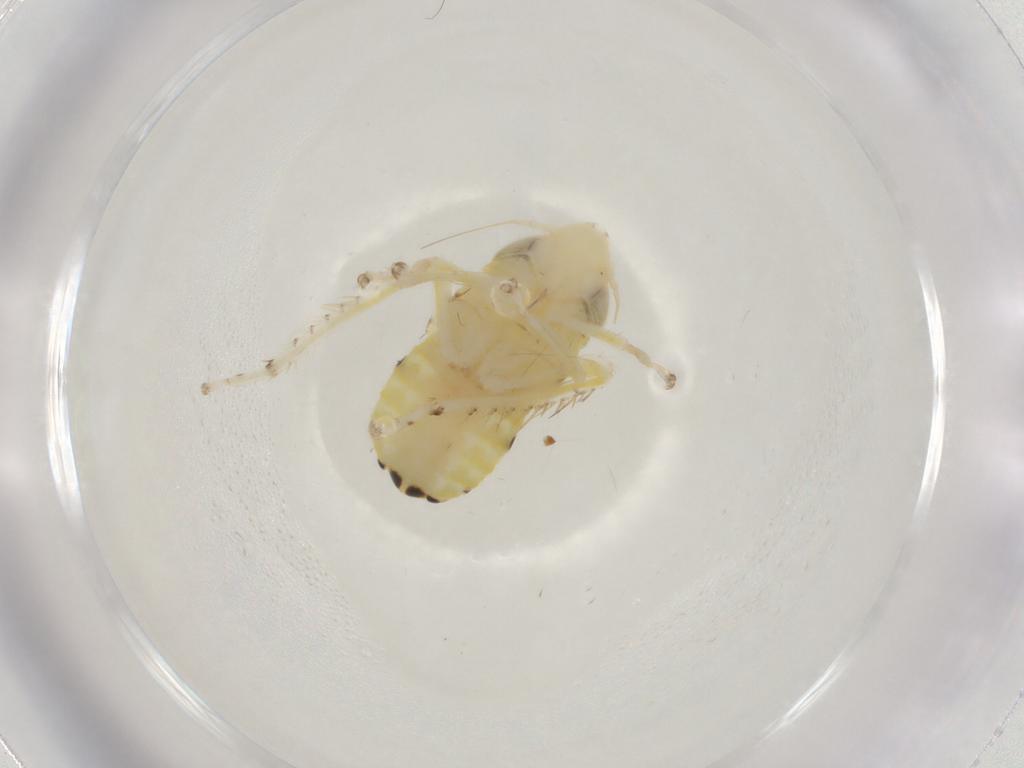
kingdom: Animalia
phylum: Arthropoda
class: Insecta
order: Hemiptera
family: Cicadellidae
